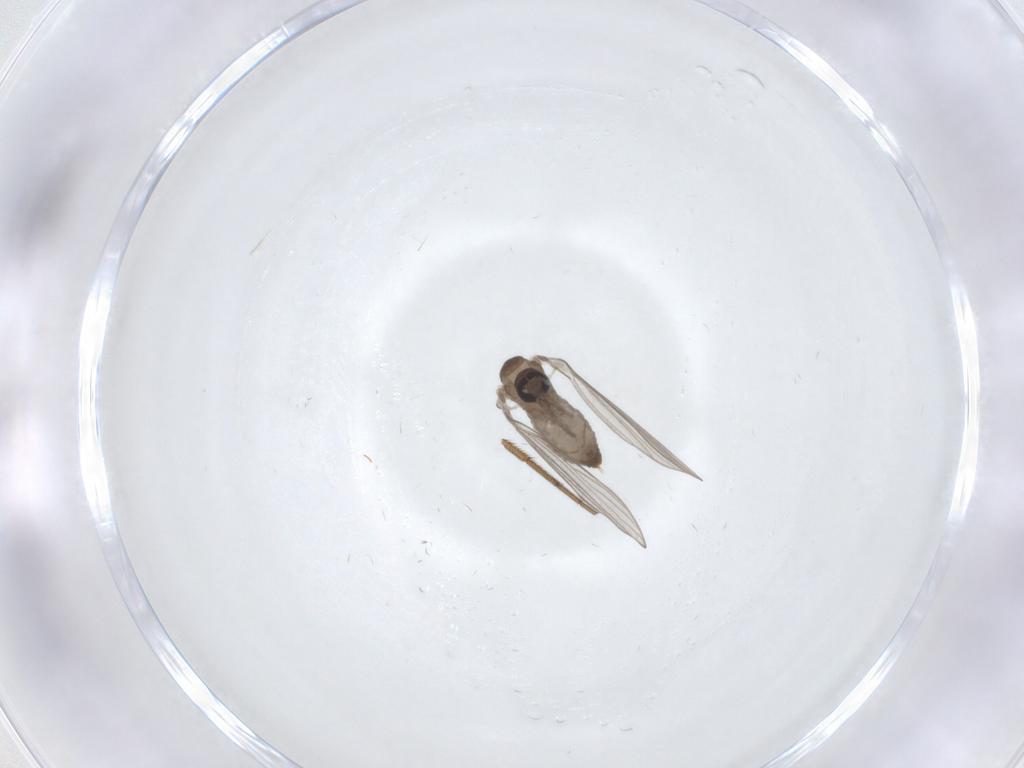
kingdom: Animalia
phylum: Arthropoda
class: Insecta
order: Diptera
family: Dolichopodidae
